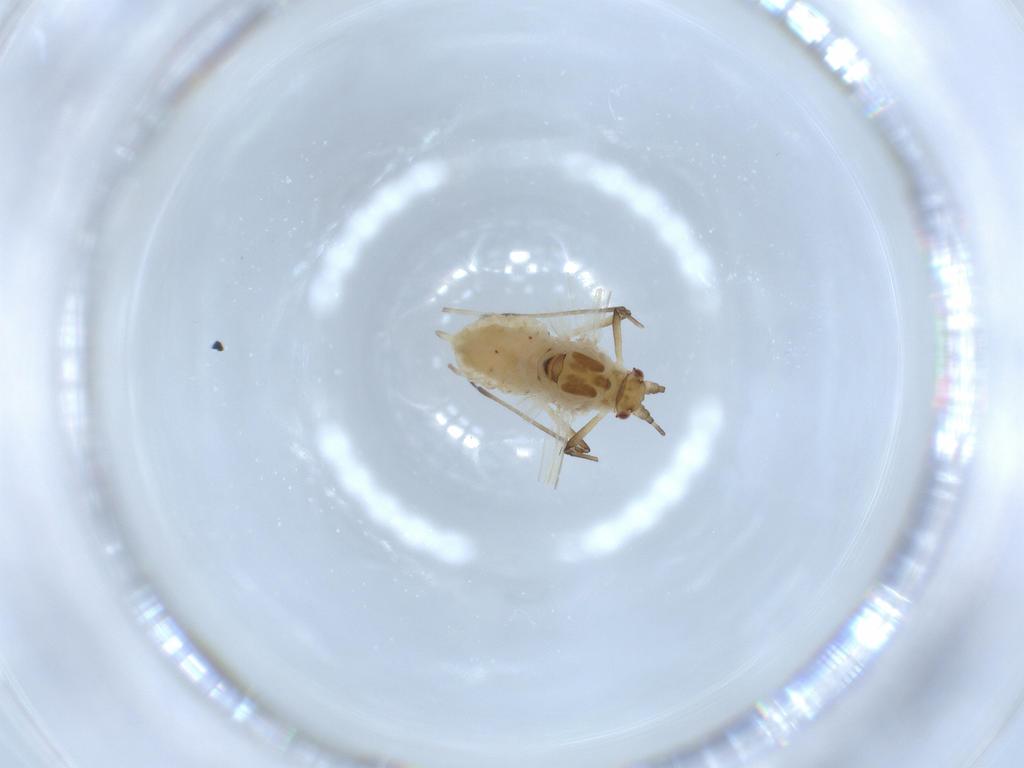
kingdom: Animalia
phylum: Arthropoda
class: Insecta
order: Hemiptera
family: Aphididae
